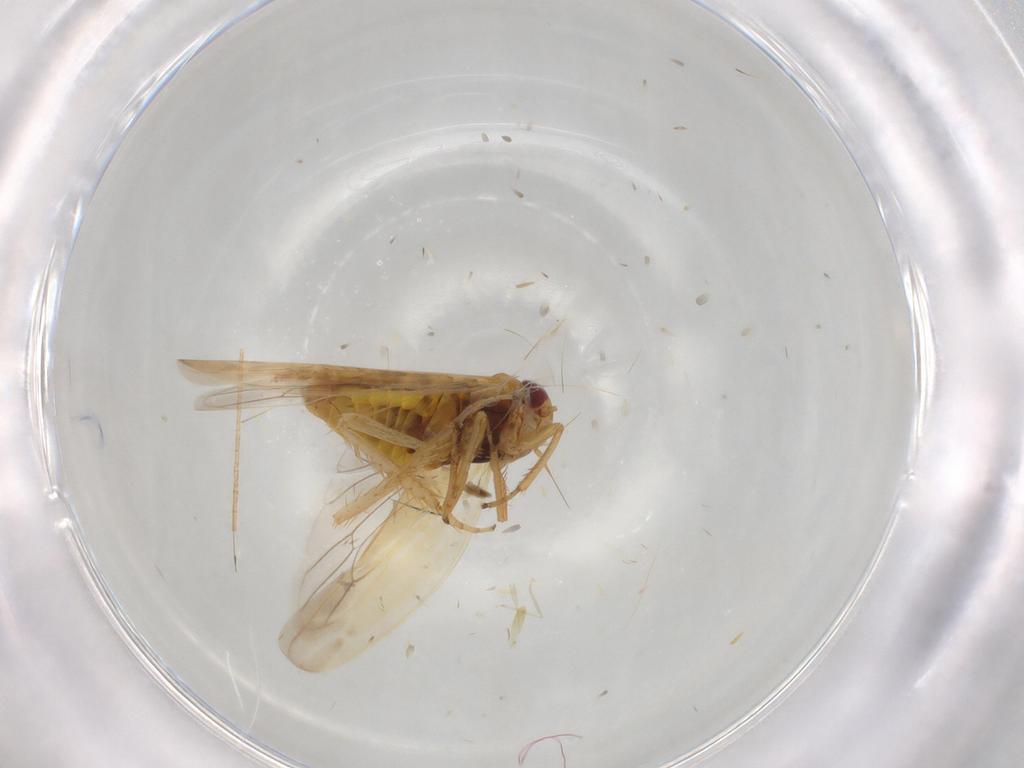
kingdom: Animalia
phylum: Arthropoda
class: Insecta
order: Hemiptera
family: Cicadellidae
